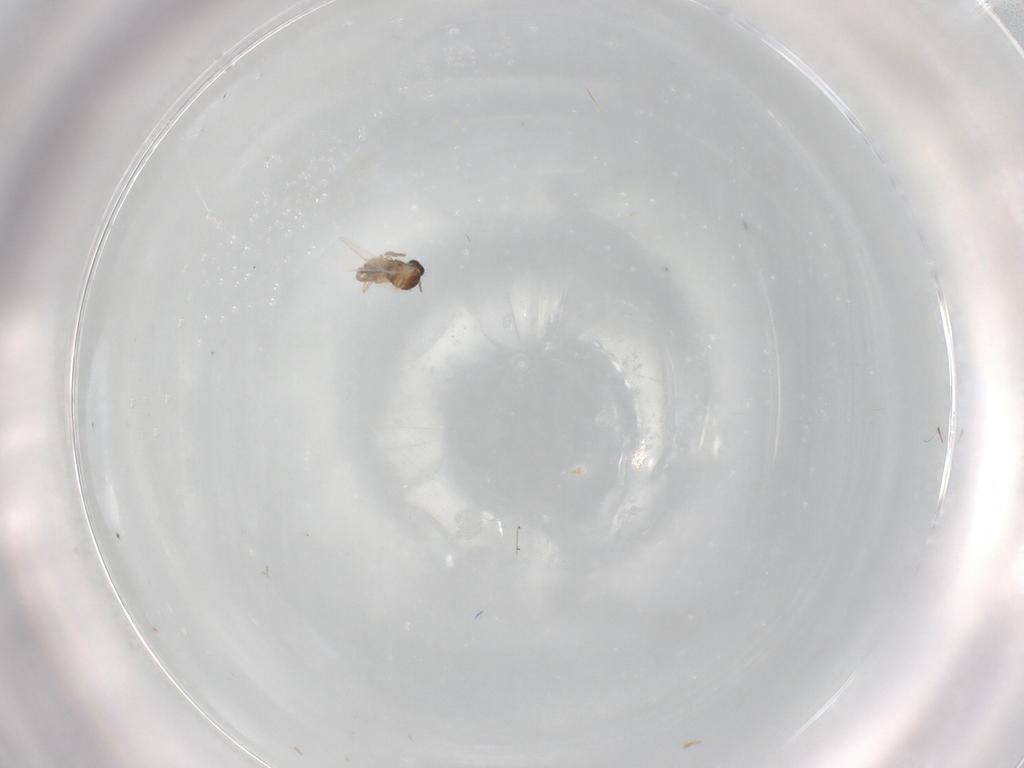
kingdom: Animalia
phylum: Arthropoda
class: Insecta
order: Diptera
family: Cecidomyiidae
